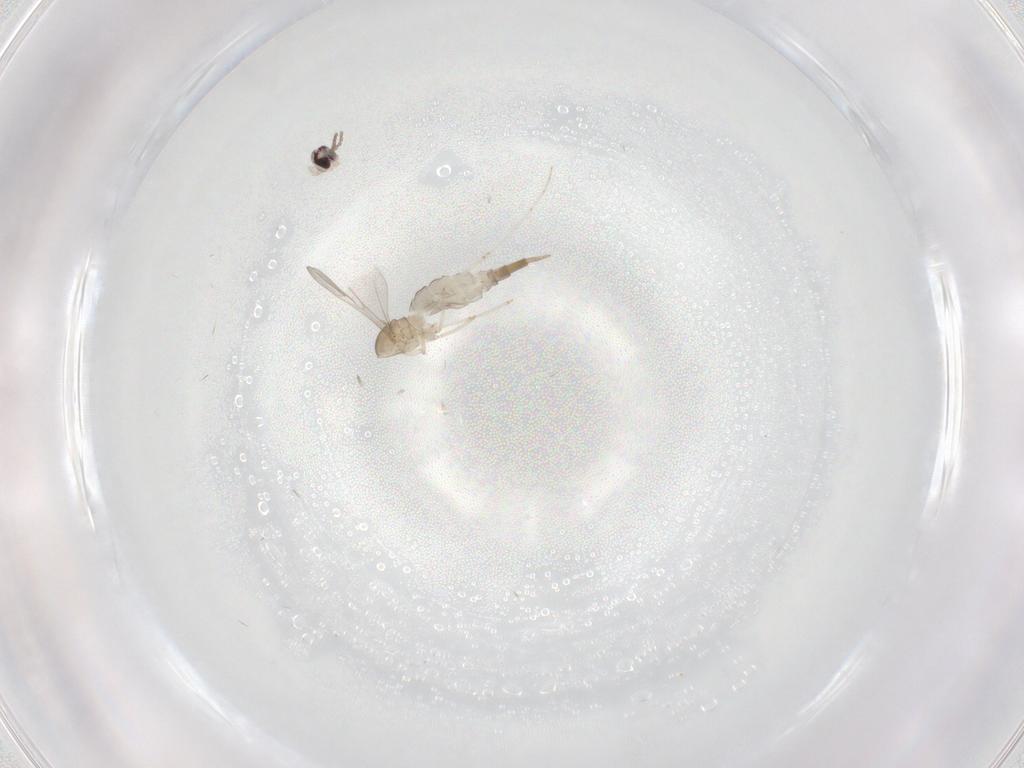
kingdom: Animalia
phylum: Arthropoda
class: Insecta
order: Diptera
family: Cecidomyiidae
